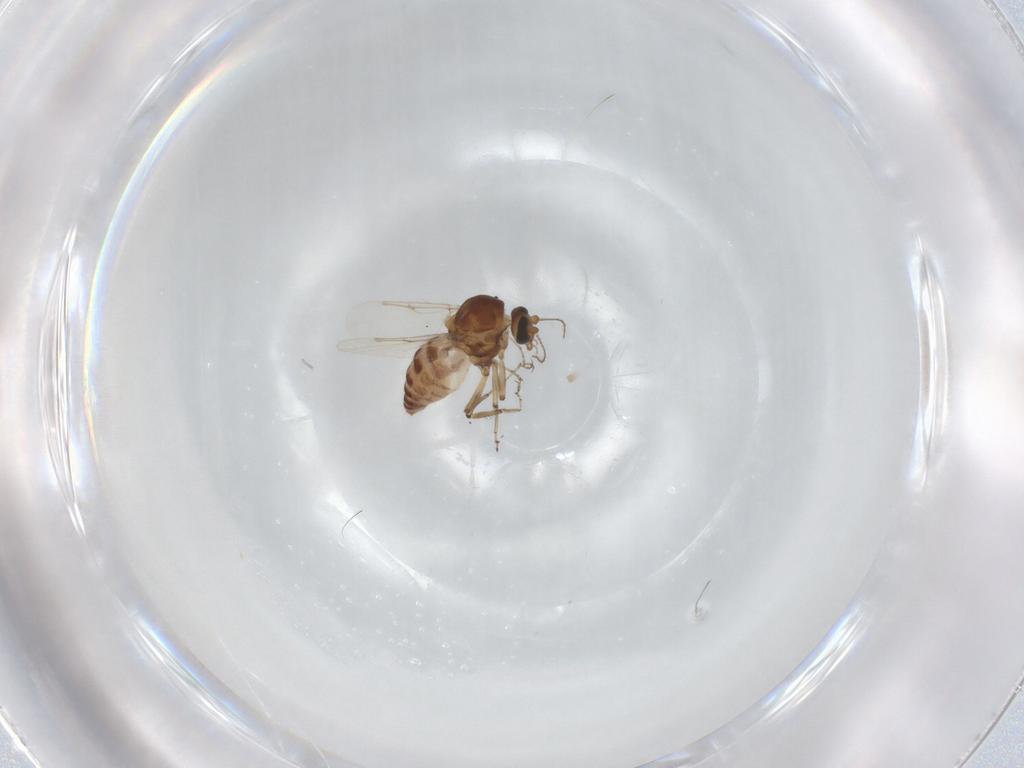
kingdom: Animalia
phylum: Arthropoda
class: Insecta
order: Diptera
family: Ceratopogonidae
